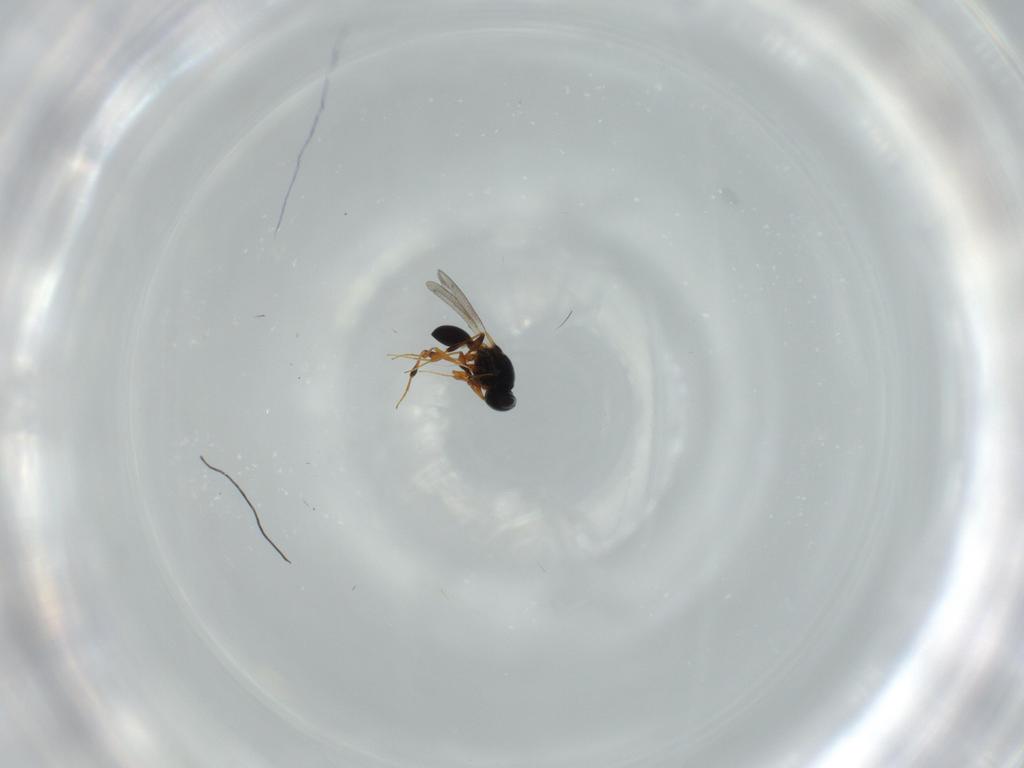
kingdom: Animalia
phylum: Arthropoda
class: Insecta
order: Hymenoptera
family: Platygastridae
